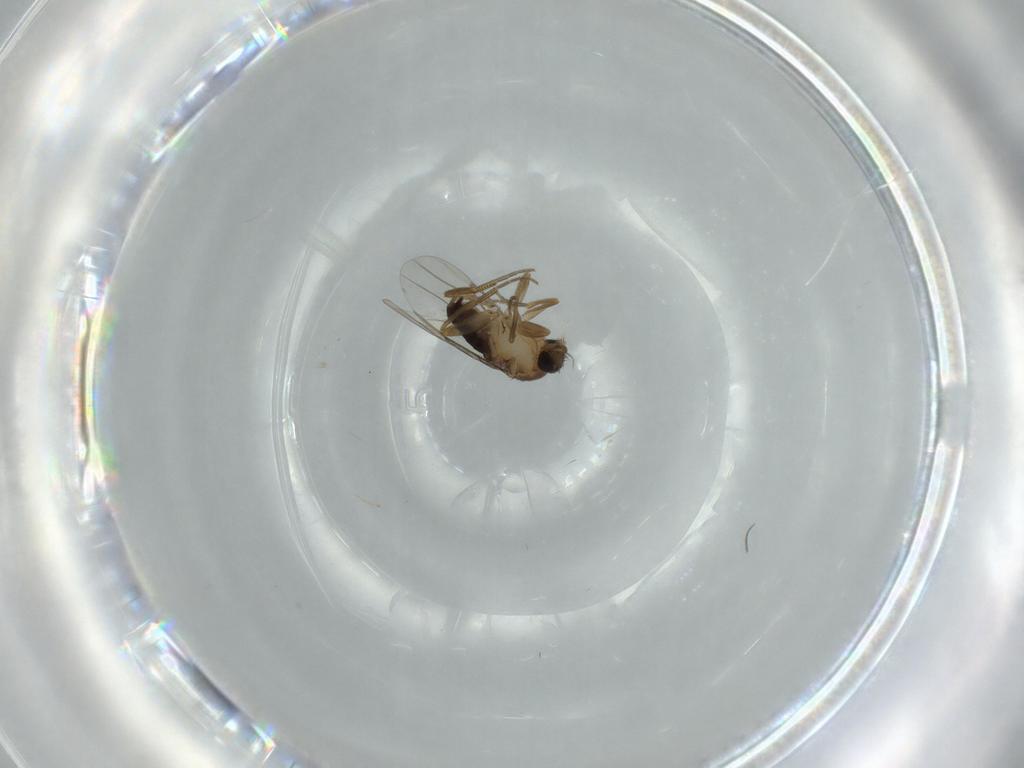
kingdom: Animalia
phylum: Arthropoda
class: Insecta
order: Diptera
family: Phoridae
